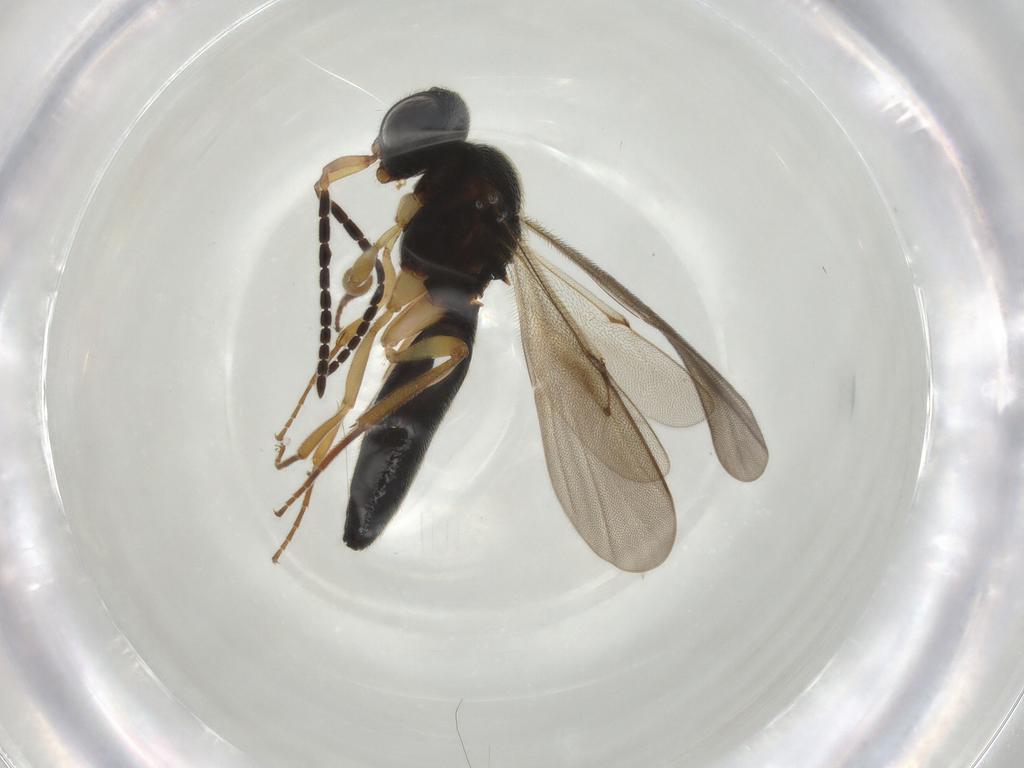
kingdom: Animalia
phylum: Arthropoda
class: Insecta
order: Hymenoptera
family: Scelionidae
